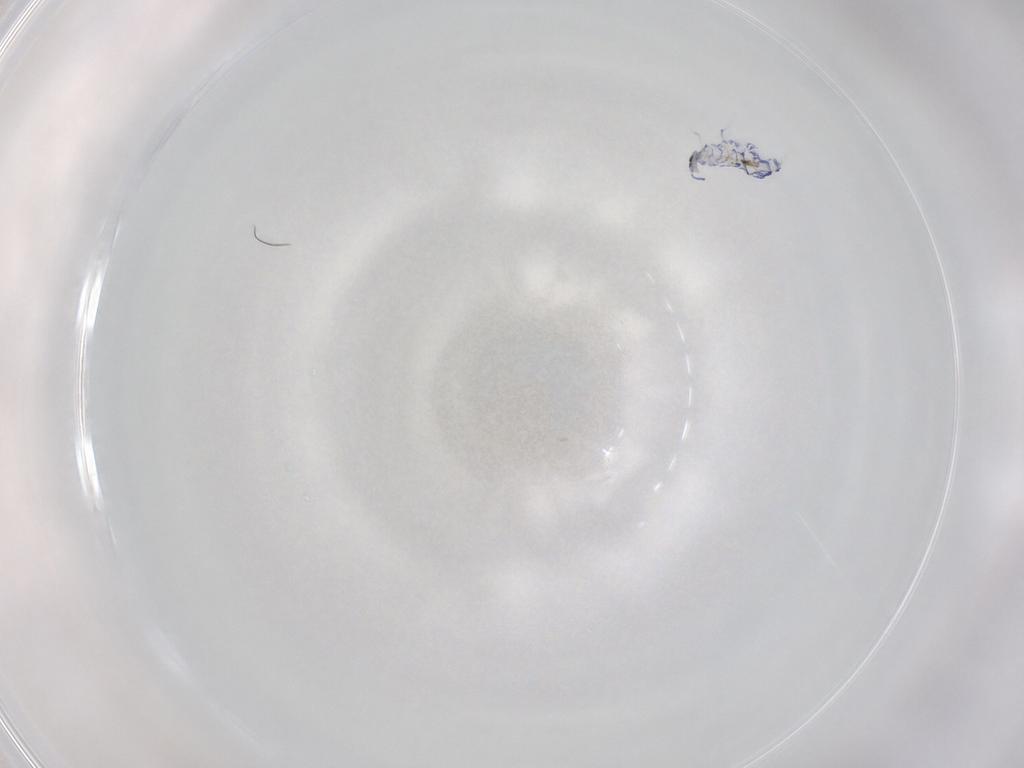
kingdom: Animalia
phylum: Arthropoda
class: Collembola
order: Entomobryomorpha
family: Entomobryidae
